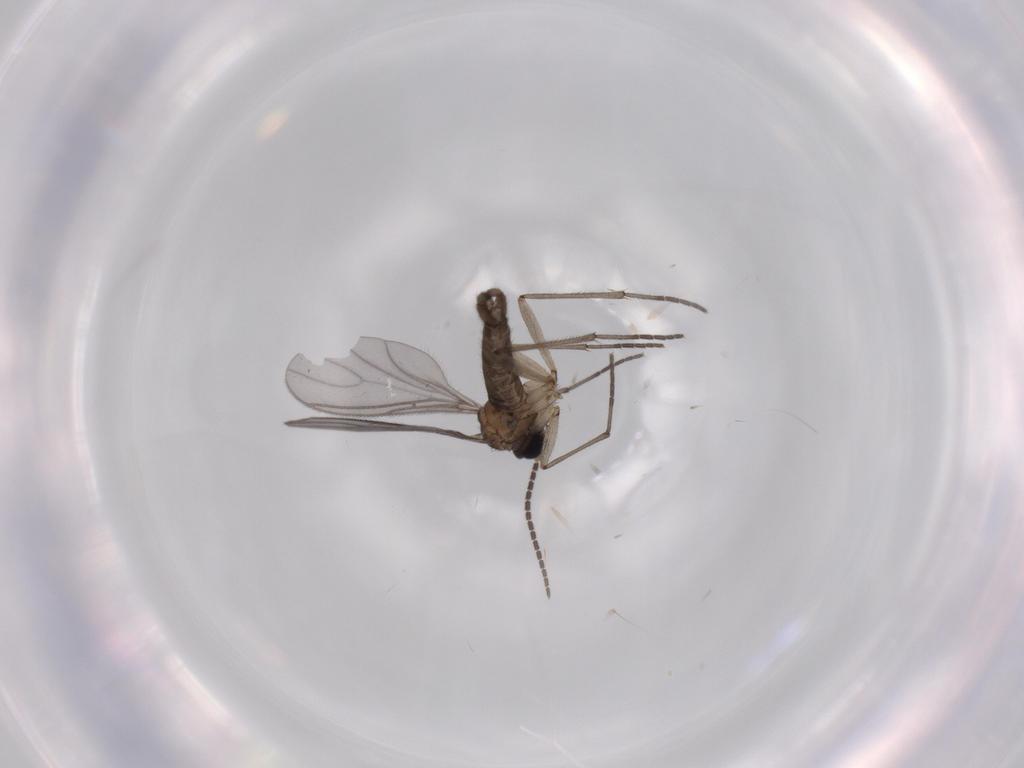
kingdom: Animalia
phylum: Arthropoda
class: Insecta
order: Diptera
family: Sciaridae
